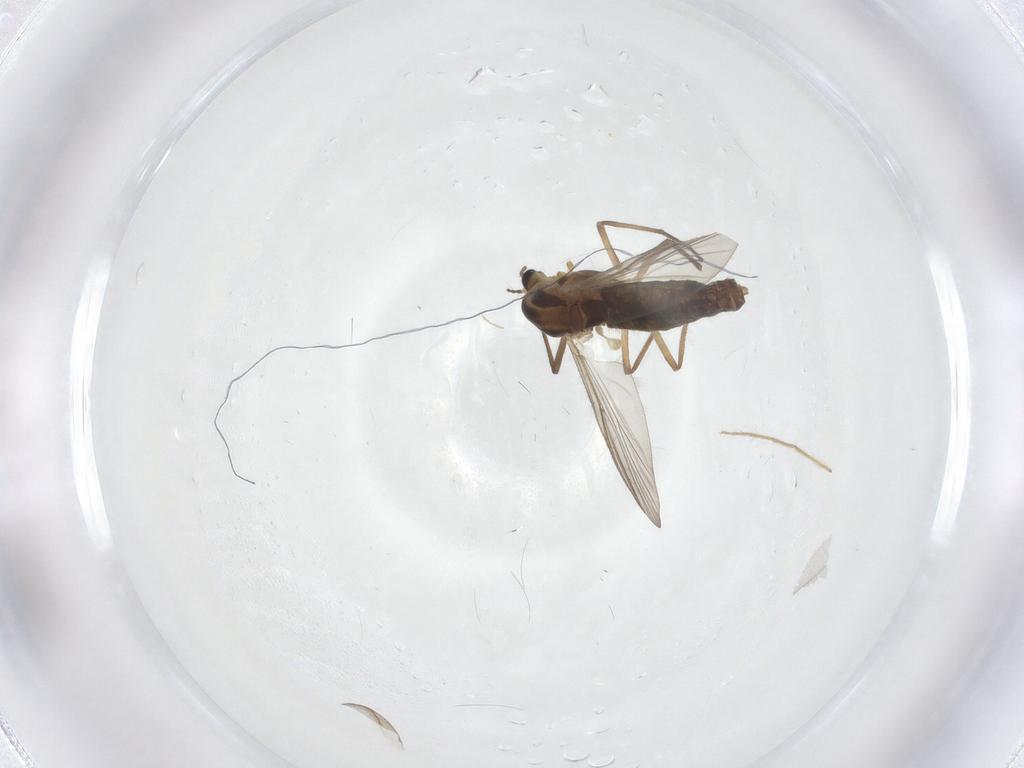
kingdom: Animalia
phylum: Arthropoda
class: Insecta
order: Diptera
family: Chironomidae
